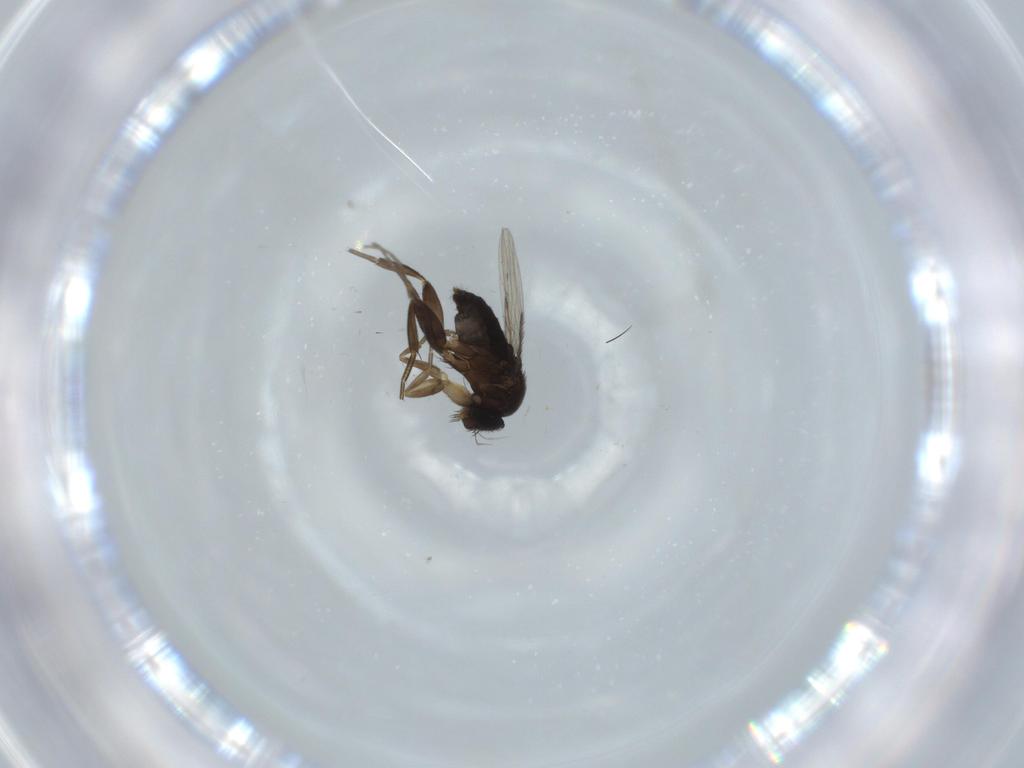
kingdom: Animalia
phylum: Arthropoda
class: Insecta
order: Diptera
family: Phoridae
